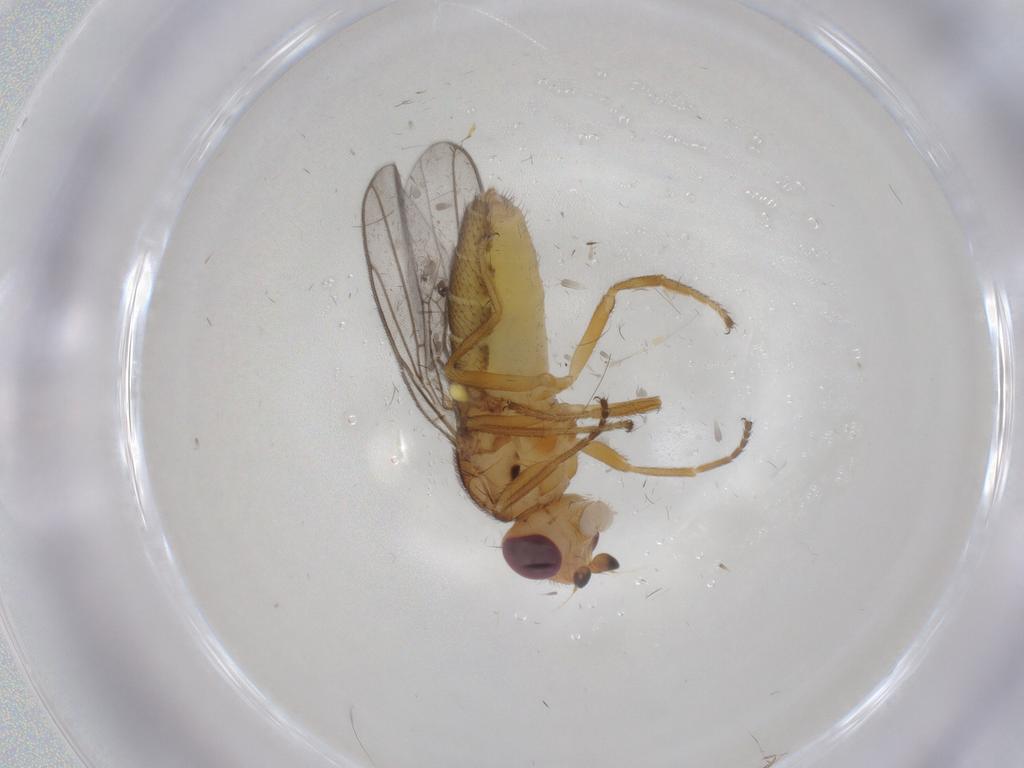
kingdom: Animalia
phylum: Arthropoda
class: Insecta
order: Diptera
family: Chloropidae
